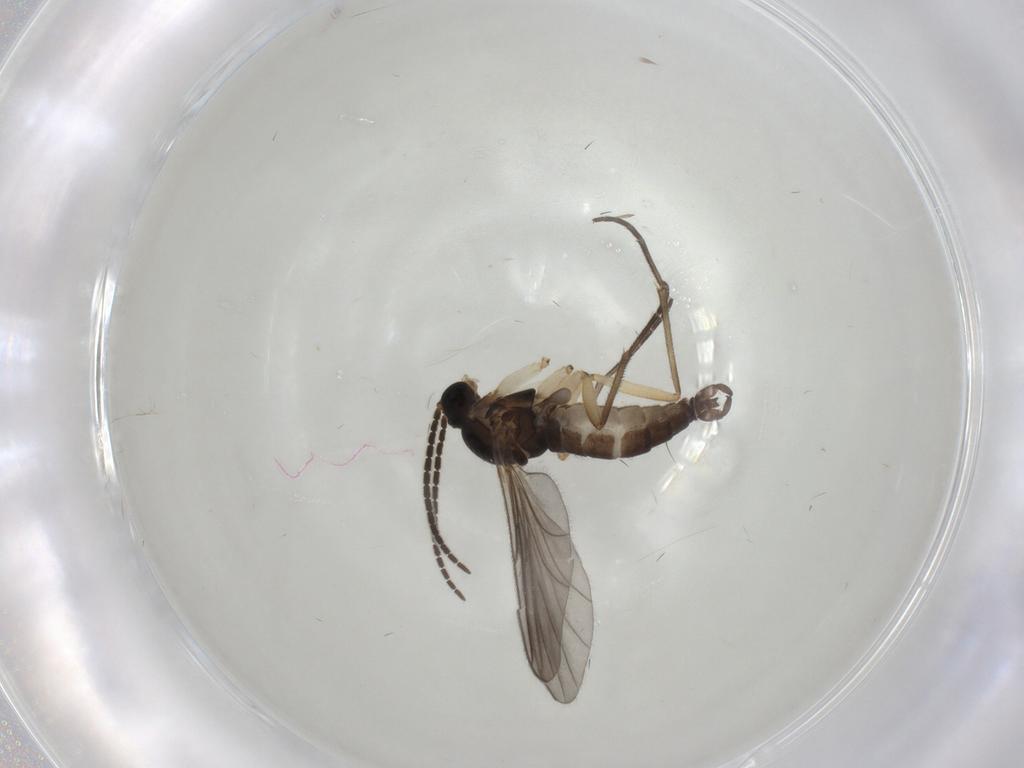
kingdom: Animalia
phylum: Arthropoda
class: Insecta
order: Diptera
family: Sciaridae
